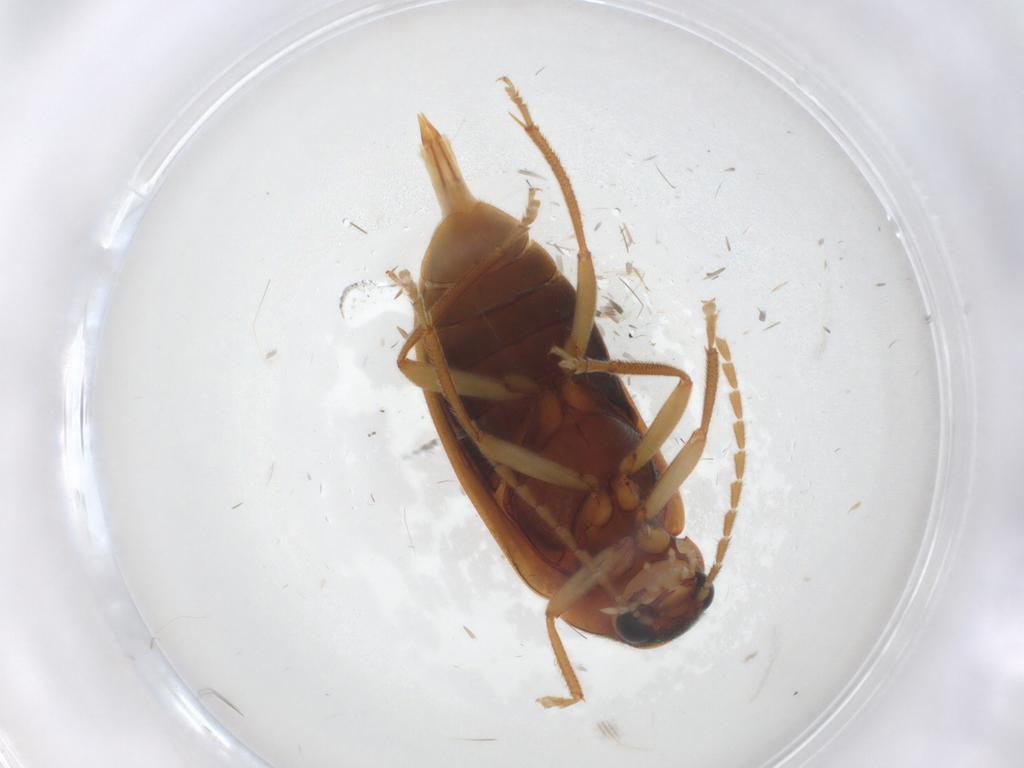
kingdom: Animalia
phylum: Arthropoda
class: Insecta
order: Coleoptera
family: Ptilodactylidae
